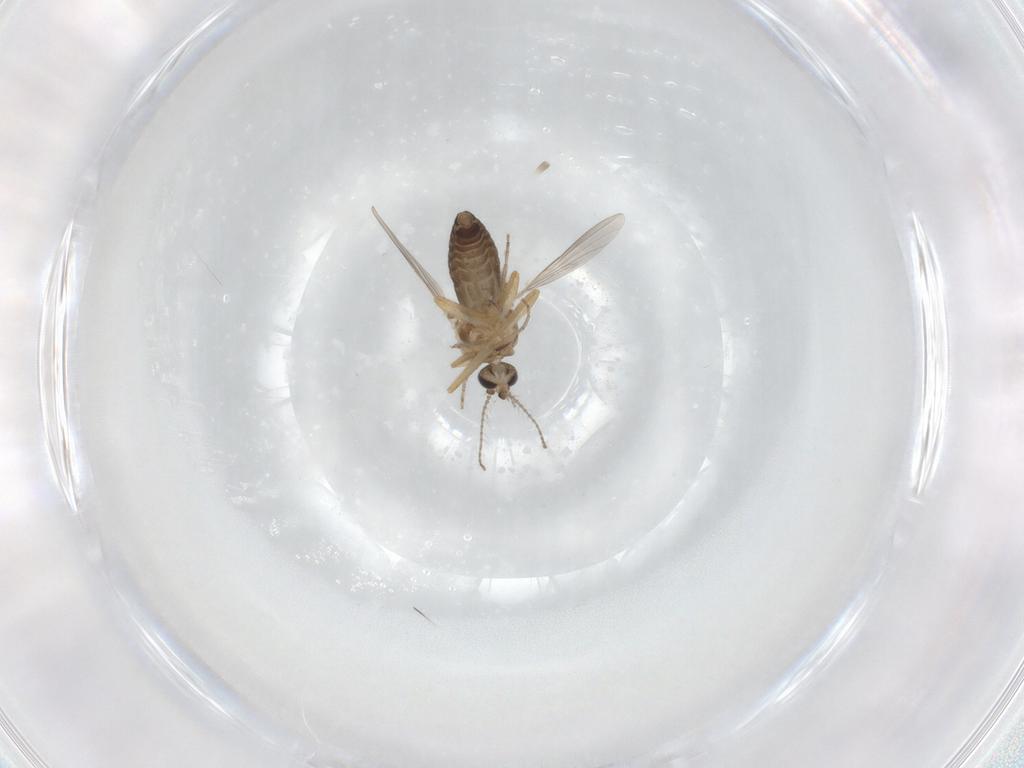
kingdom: Animalia
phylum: Arthropoda
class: Insecta
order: Diptera
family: Ceratopogonidae
